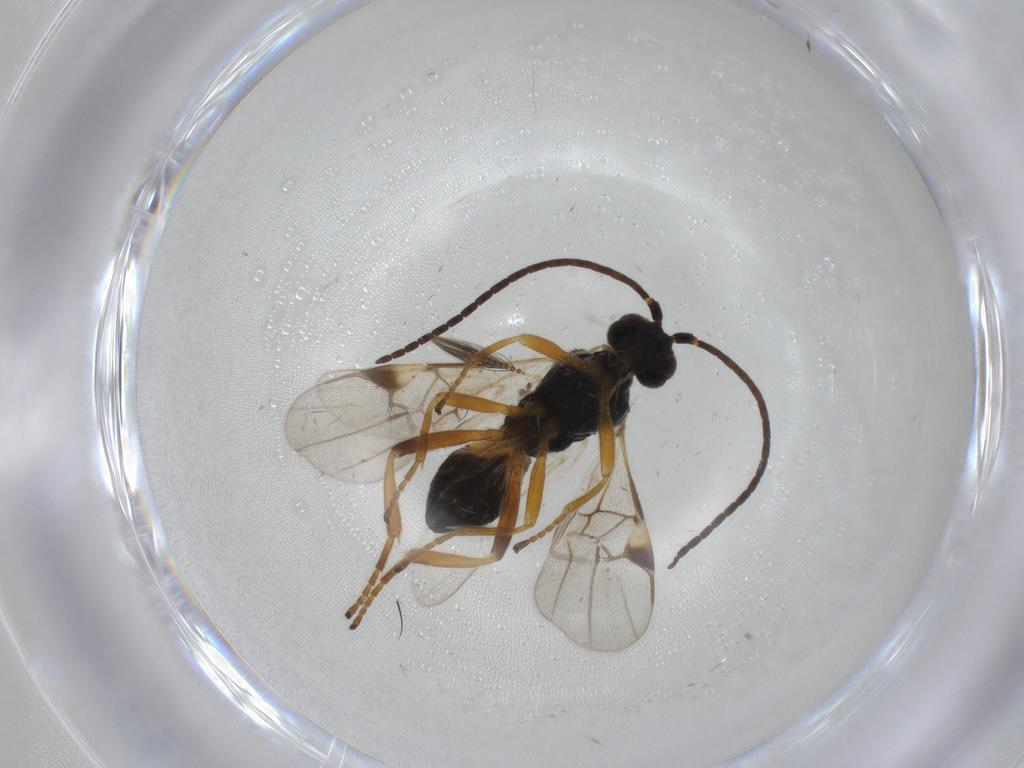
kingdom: Animalia
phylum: Arthropoda
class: Insecta
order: Hymenoptera
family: Braconidae
